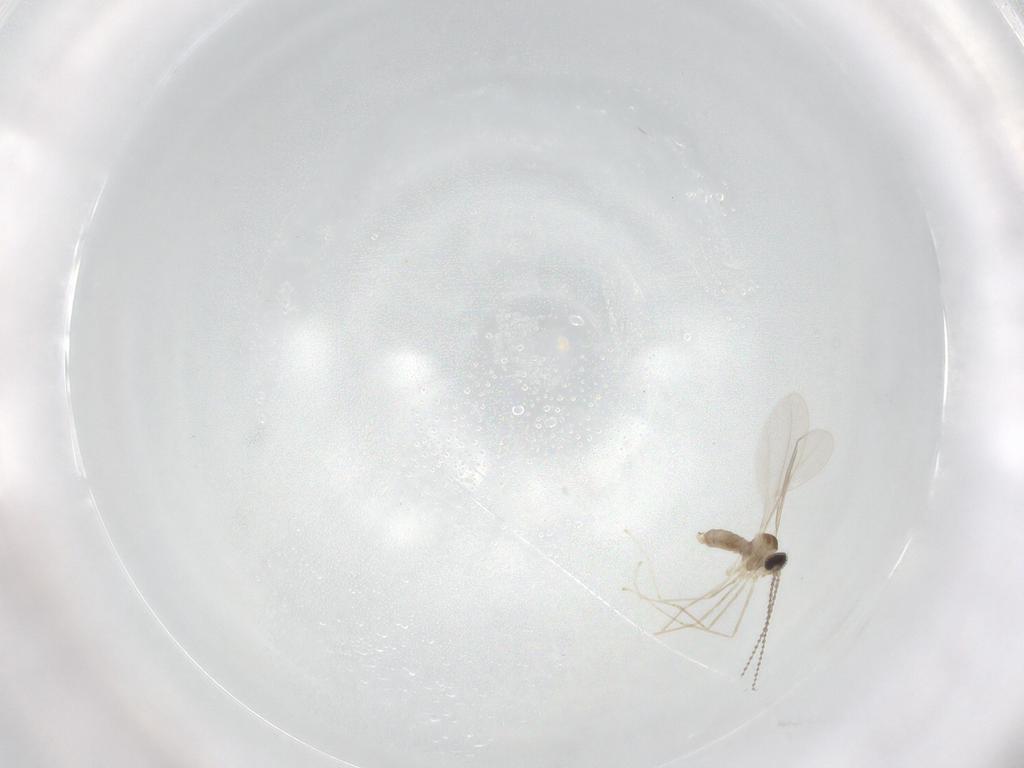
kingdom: Animalia
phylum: Arthropoda
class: Insecta
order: Diptera
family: Cecidomyiidae
